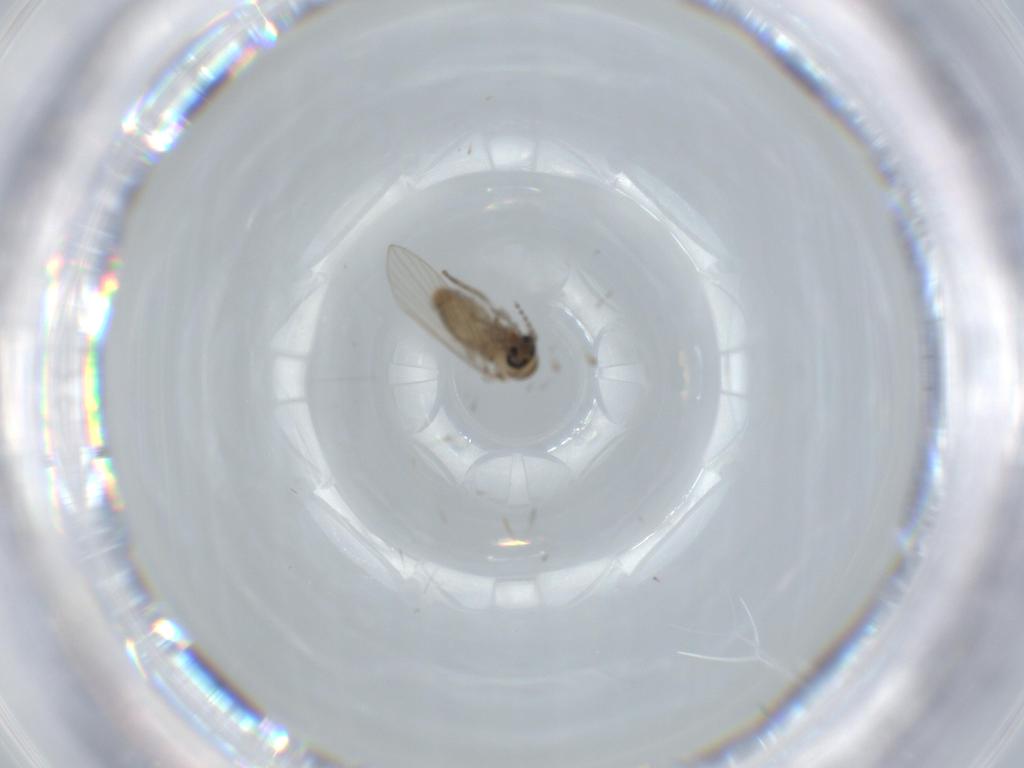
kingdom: Animalia
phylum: Arthropoda
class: Insecta
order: Diptera
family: Psychodidae
